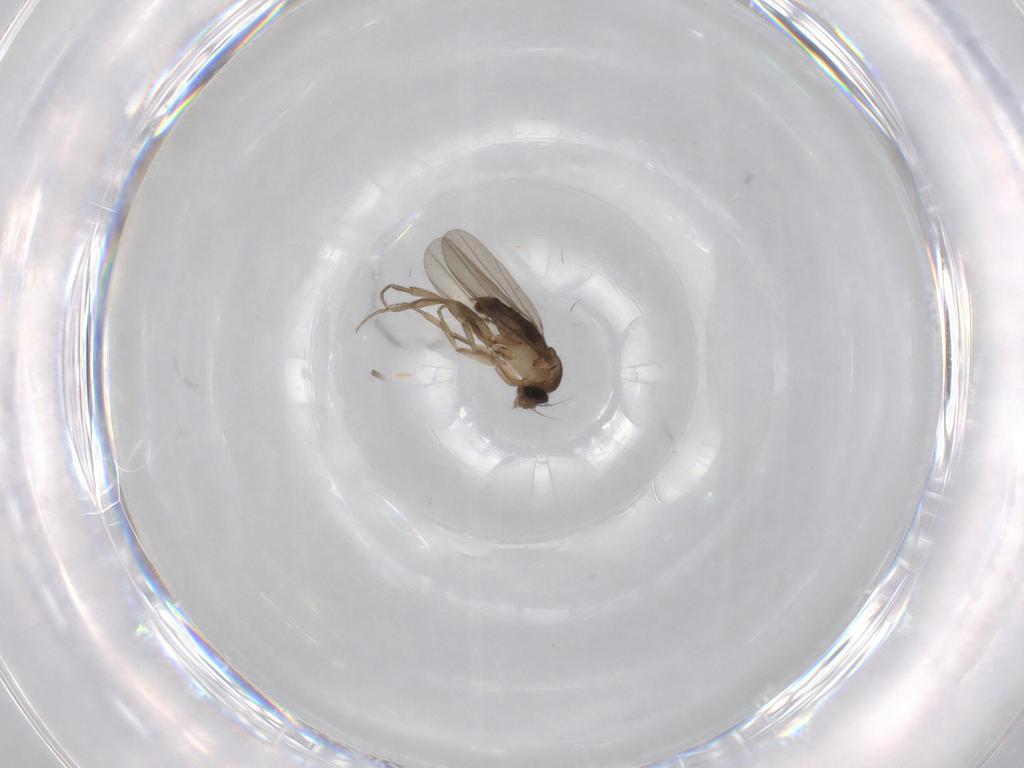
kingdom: Animalia
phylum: Arthropoda
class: Insecta
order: Diptera
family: Phoridae
